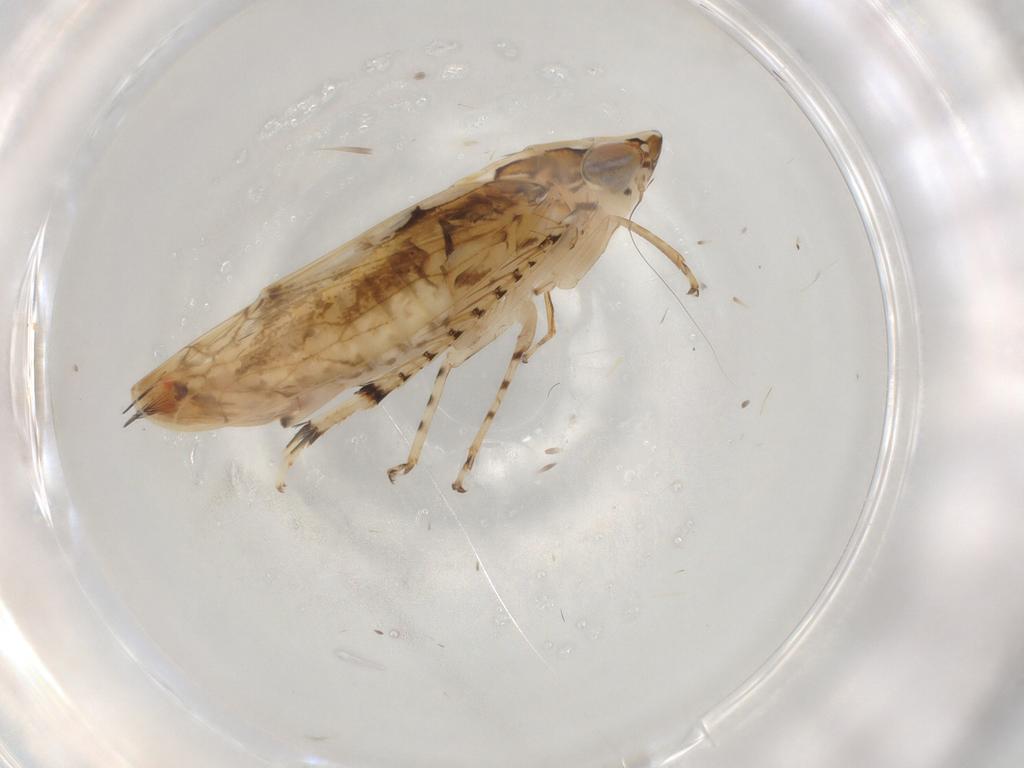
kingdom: Animalia
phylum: Arthropoda
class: Insecta
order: Hemiptera
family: Cicadellidae
